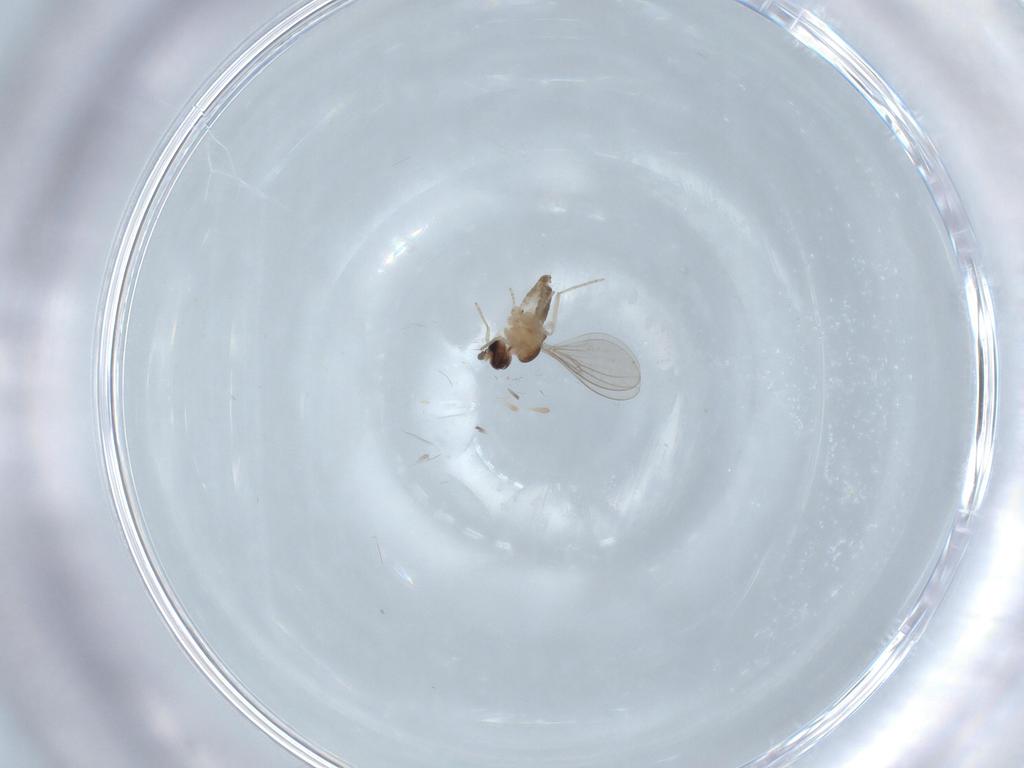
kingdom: Animalia
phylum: Arthropoda
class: Insecta
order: Diptera
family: Cecidomyiidae
